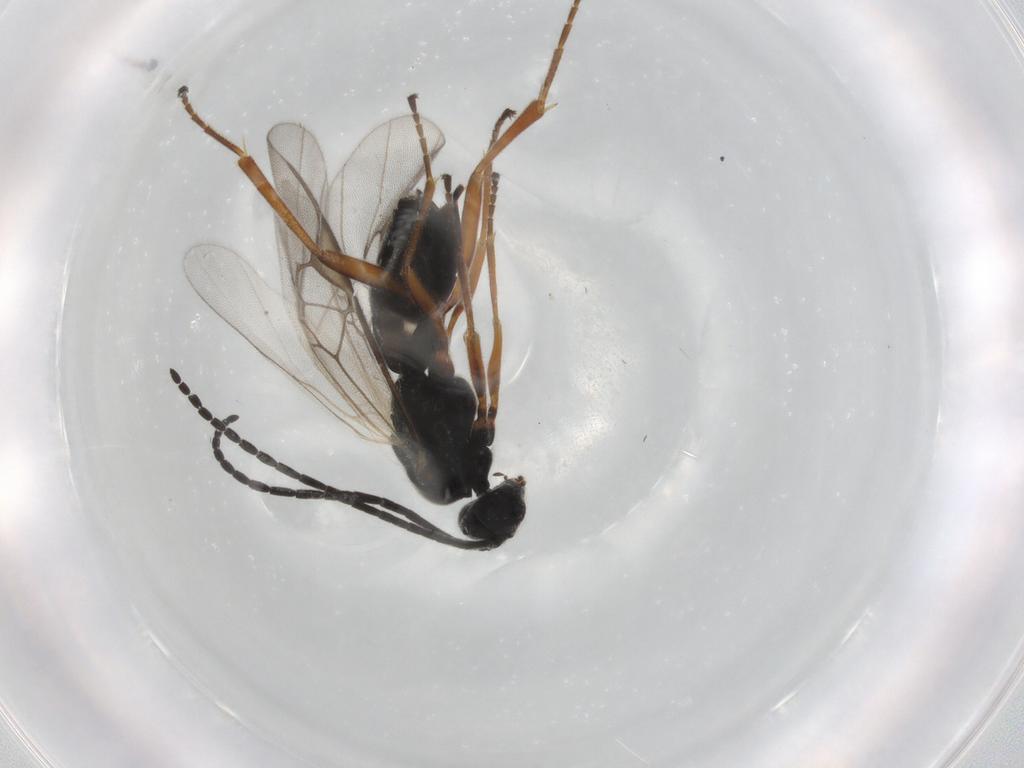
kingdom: Animalia
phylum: Arthropoda
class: Insecta
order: Hymenoptera
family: Braconidae
